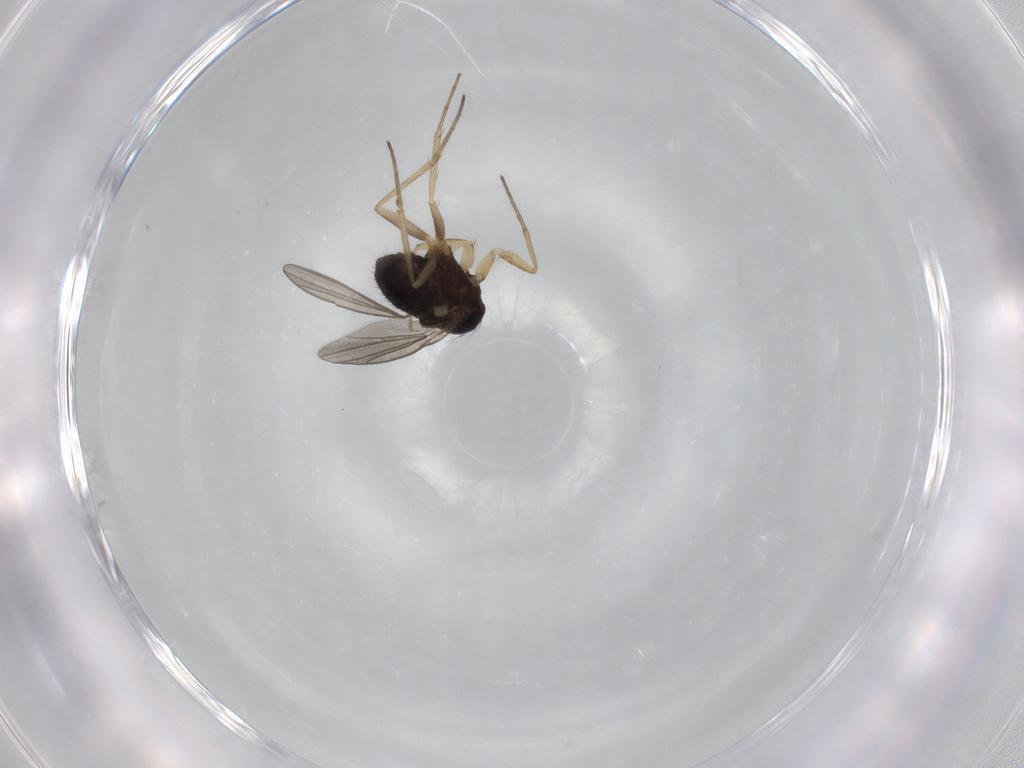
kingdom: Animalia
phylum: Arthropoda
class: Insecta
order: Diptera
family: Dolichopodidae
